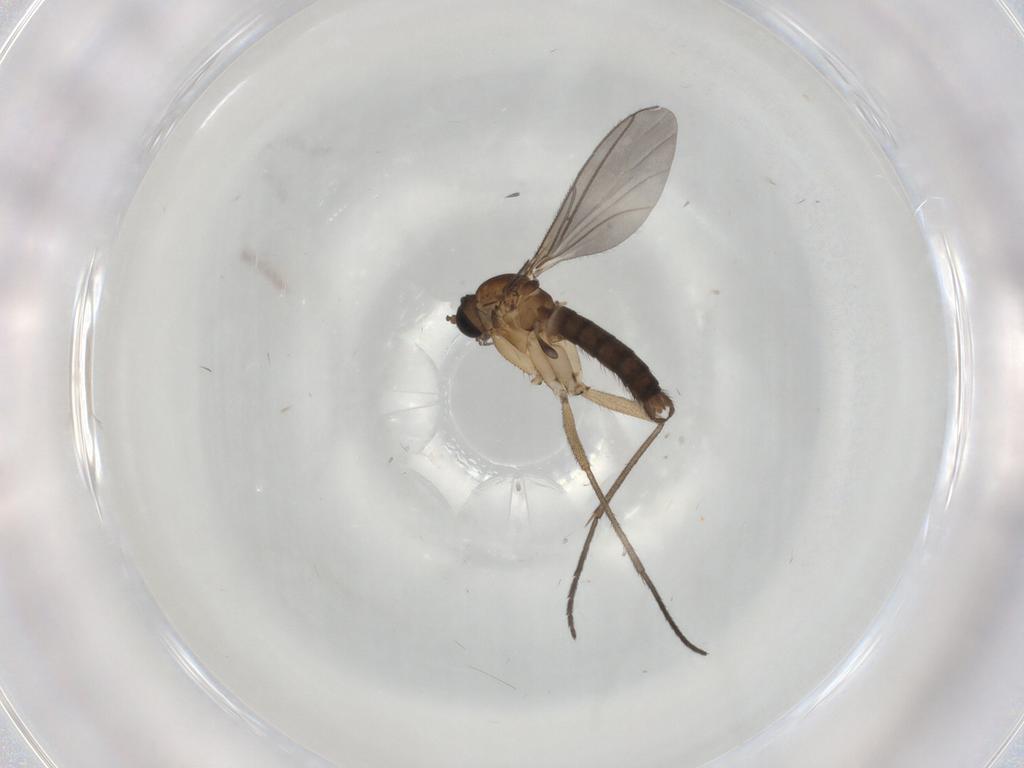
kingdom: Animalia
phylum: Arthropoda
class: Insecta
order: Diptera
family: Sciaridae
